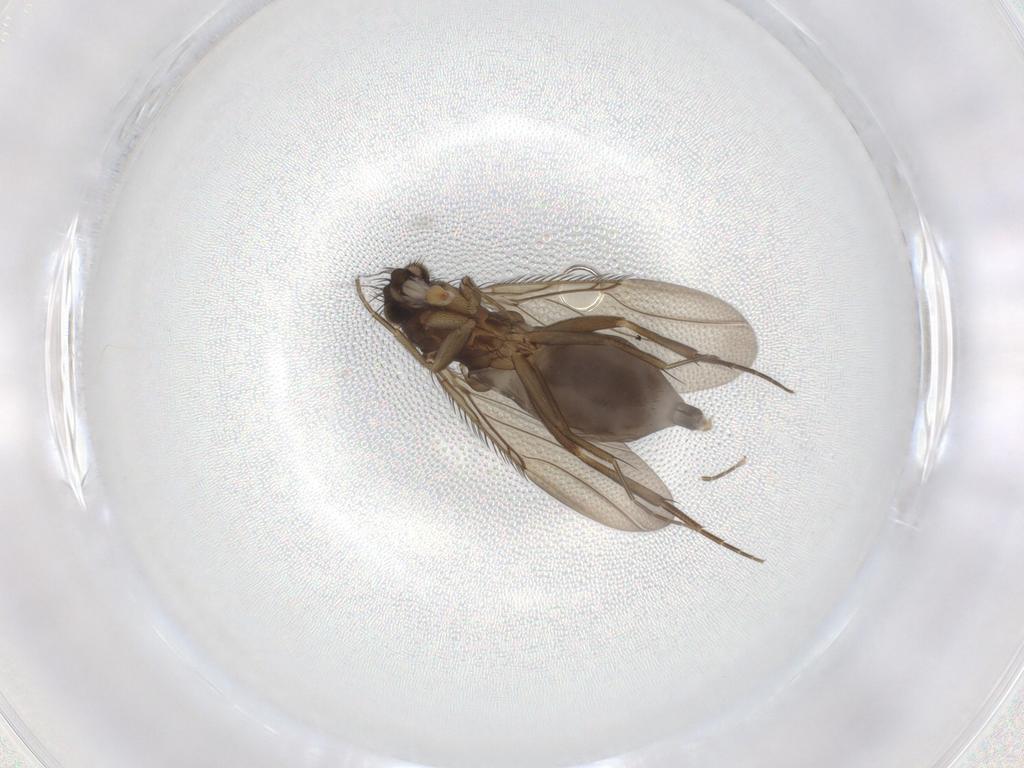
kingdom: Animalia
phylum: Arthropoda
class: Insecta
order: Diptera
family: Phoridae
